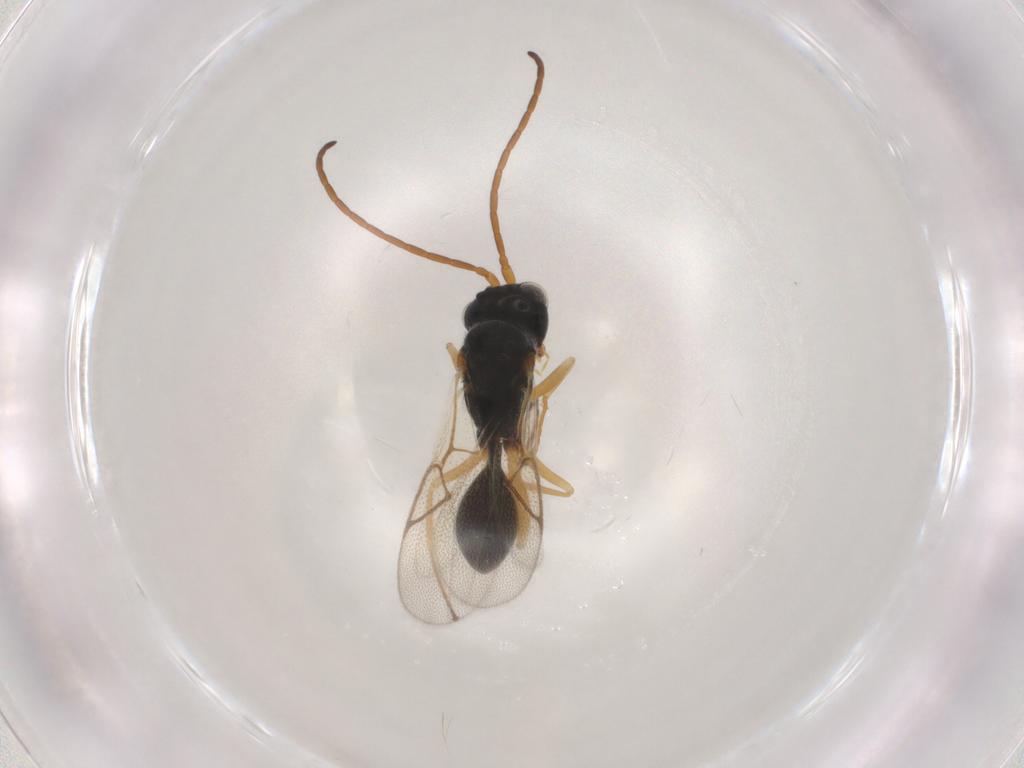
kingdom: Animalia
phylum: Arthropoda
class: Insecta
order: Hymenoptera
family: Figitidae
